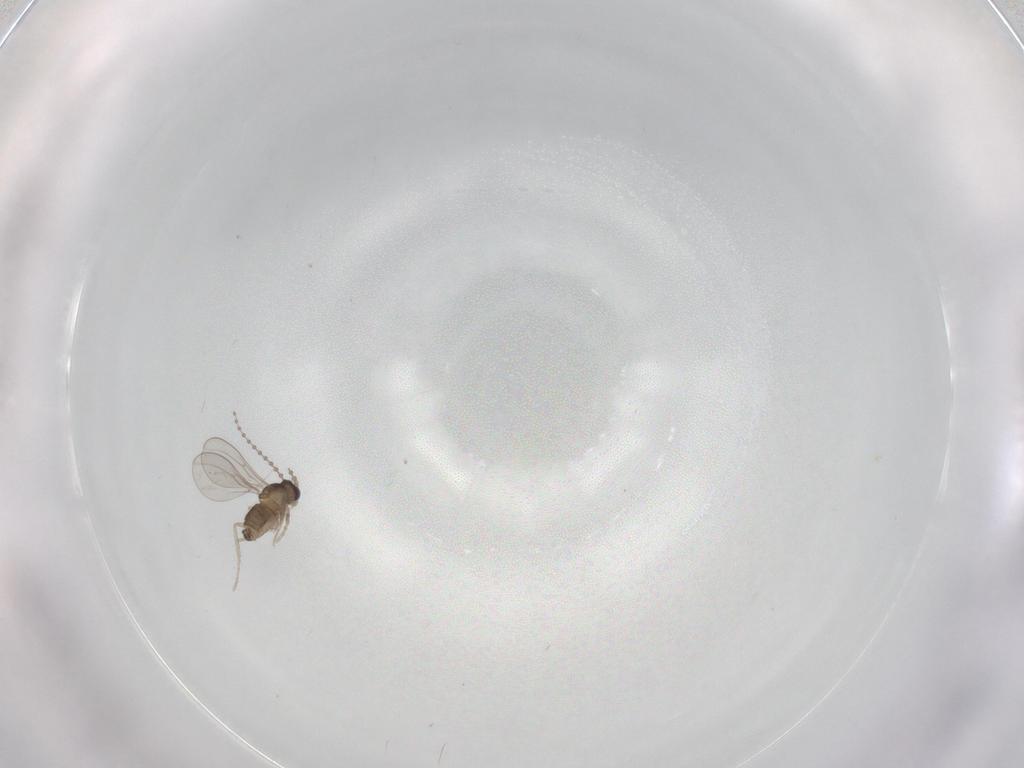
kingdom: Animalia
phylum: Arthropoda
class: Insecta
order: Diptera
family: Cecidomyiidae
